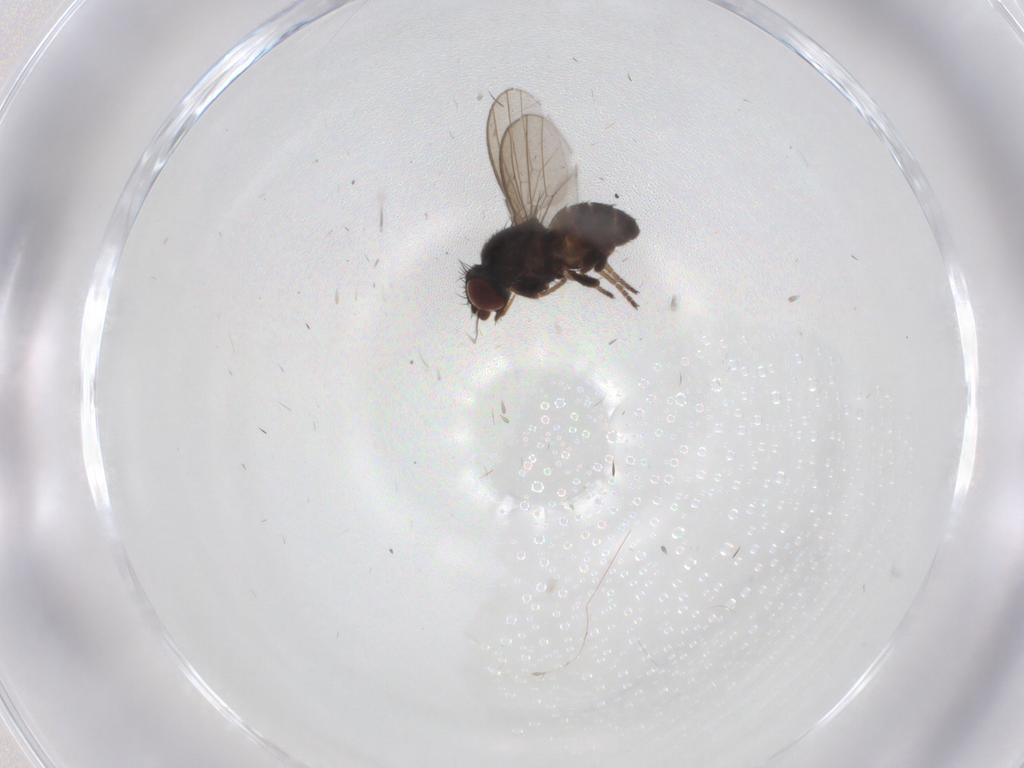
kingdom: Animalia
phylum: Arthropoda
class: Insecta
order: Diptera
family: Milichiidae
